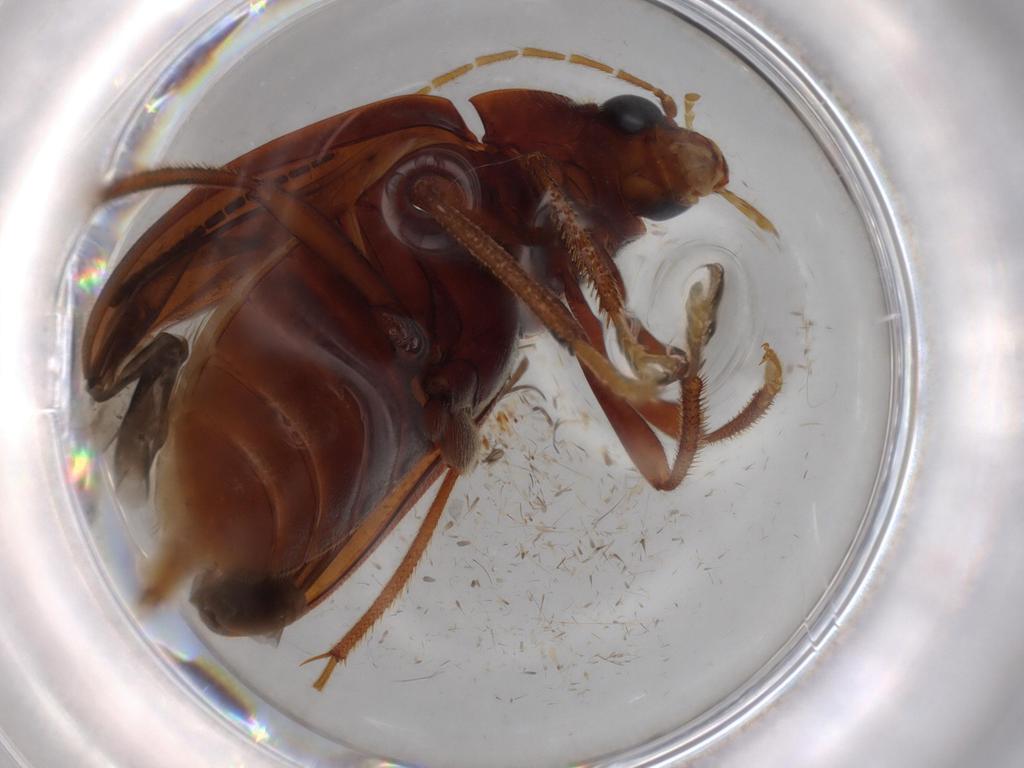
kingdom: Animalia
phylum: Arthropoda
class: Insecta
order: Coleoptera
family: Ptilodactylidae
